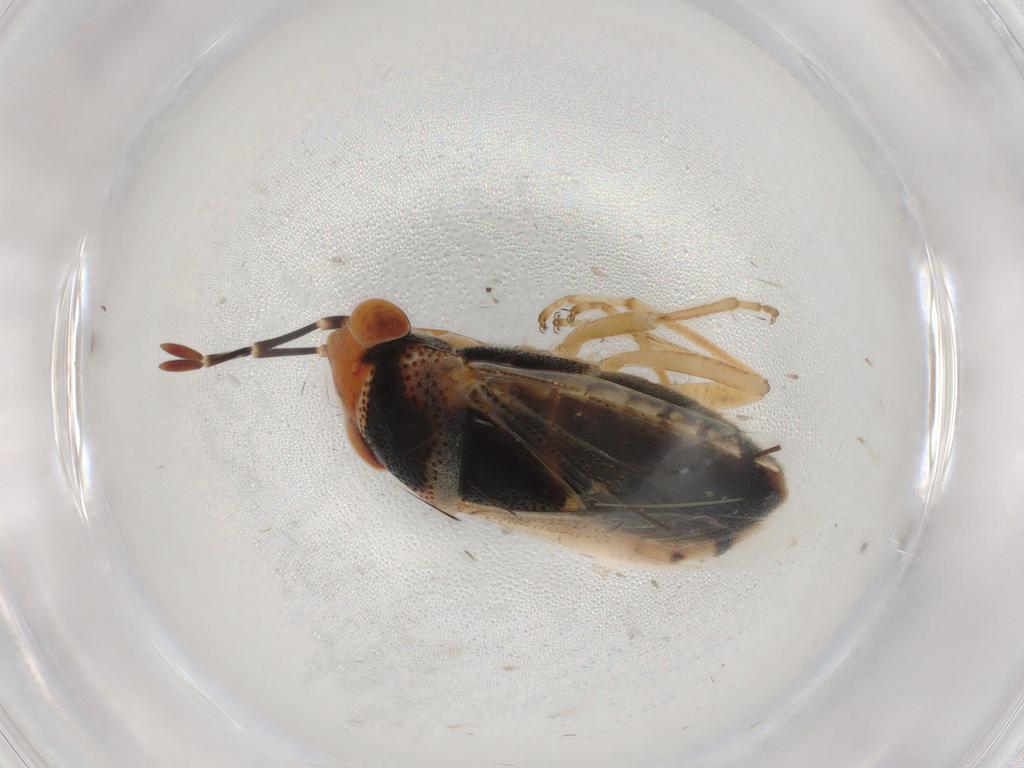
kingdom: Animalia
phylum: Arthropoda
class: Insecta
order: Hemiptera
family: Geocoridae
